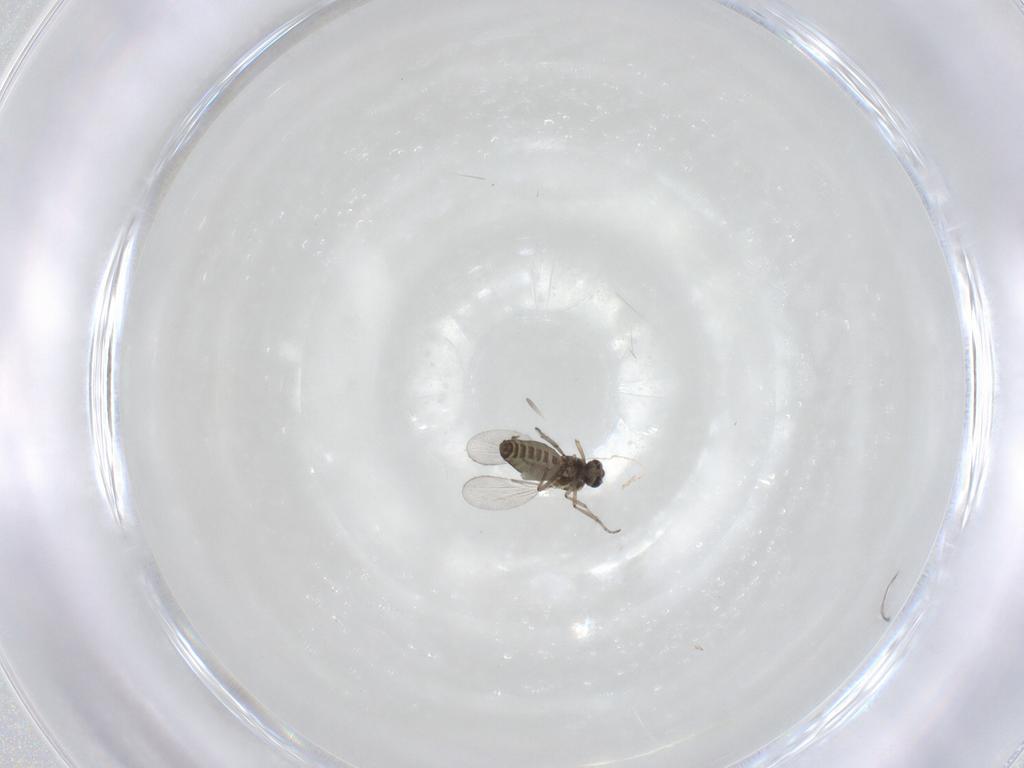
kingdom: Animalia
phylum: Arthropoda
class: Insecta
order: Diptera
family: Ceratopogonidae
